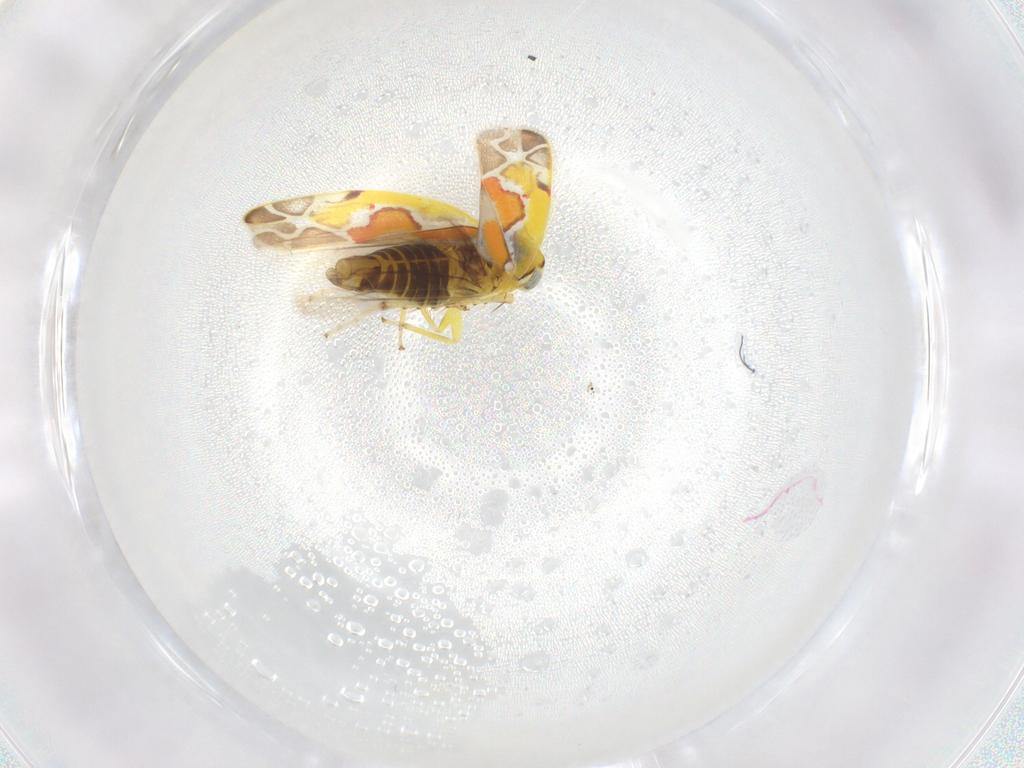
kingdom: Animalia
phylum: Arthropoda
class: Insecta
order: Hemiptera
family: Cicadellidae
